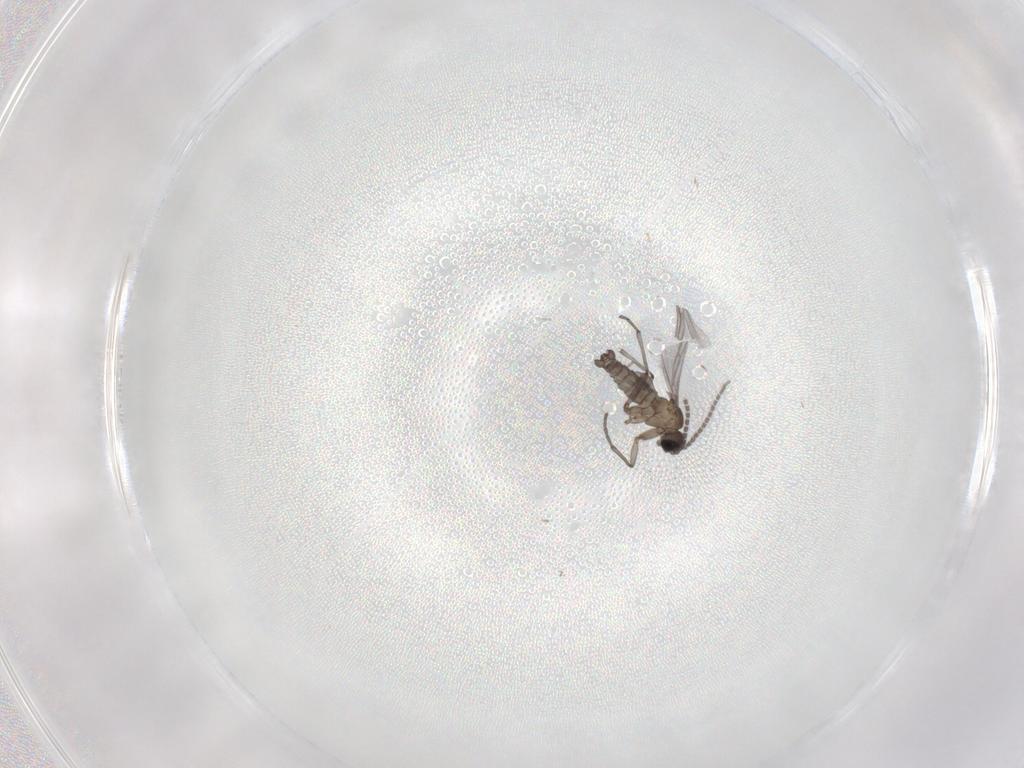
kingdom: Animalia
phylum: Arthropoda
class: Insecta
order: Diptera
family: Sciaridae
